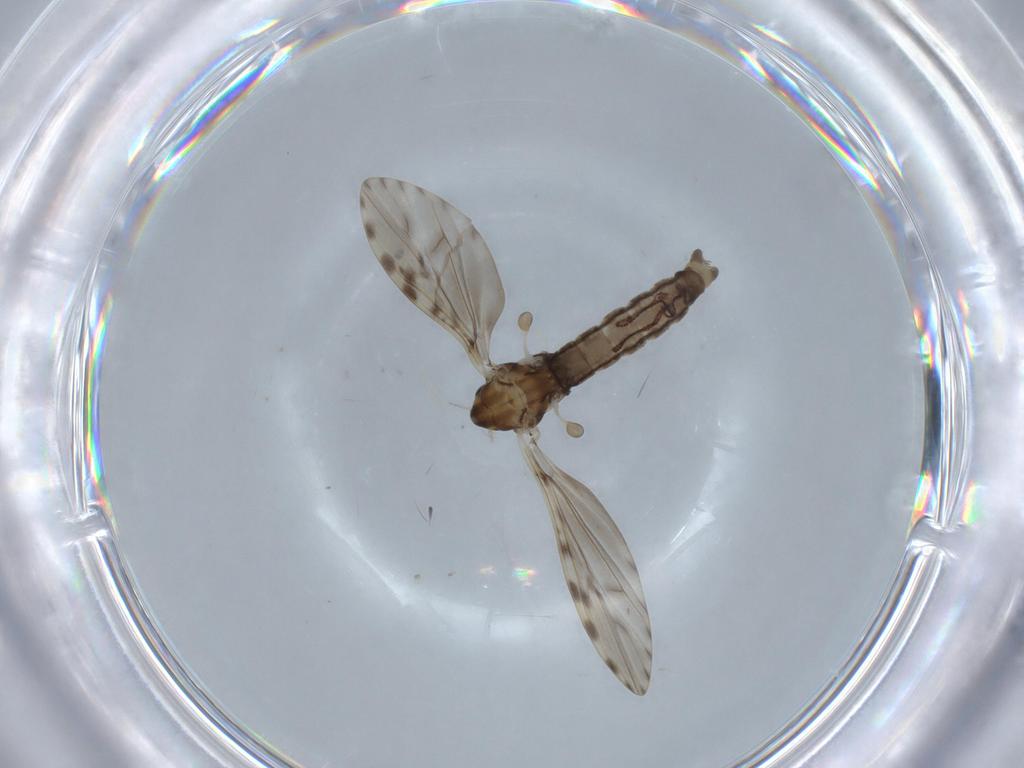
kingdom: Animalia
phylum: Arthropoda
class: Insecta
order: Diptera
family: Limoniidae
